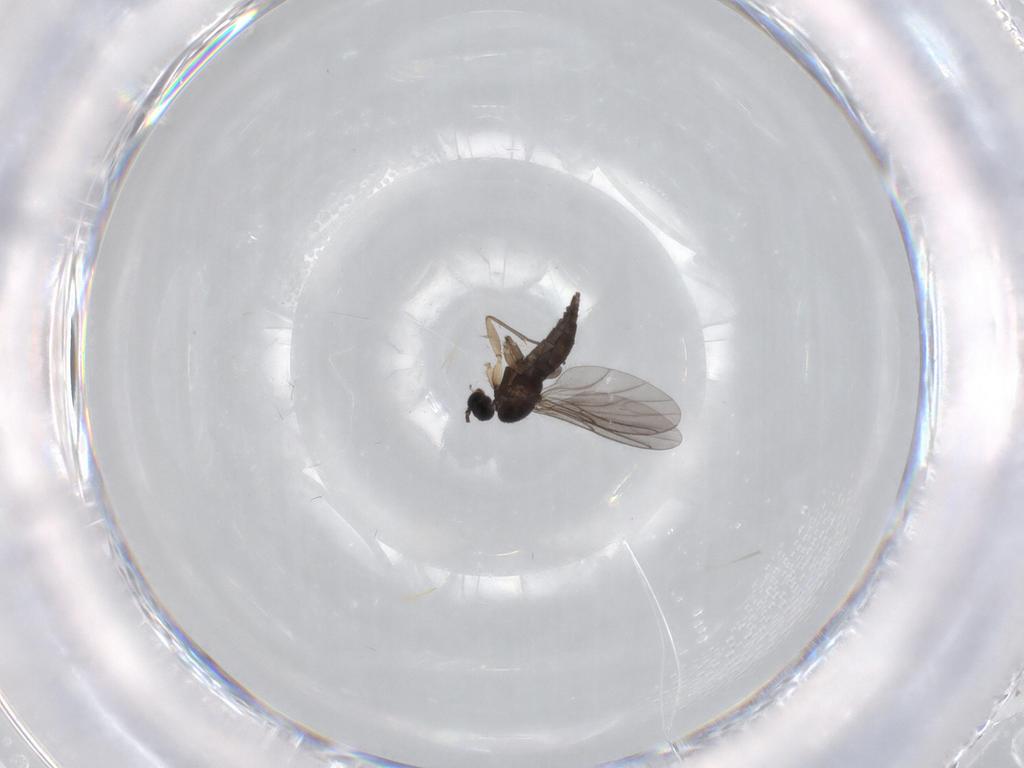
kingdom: Animalia
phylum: Arthropoda
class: Insecta
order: Diptera
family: Sciaridae
